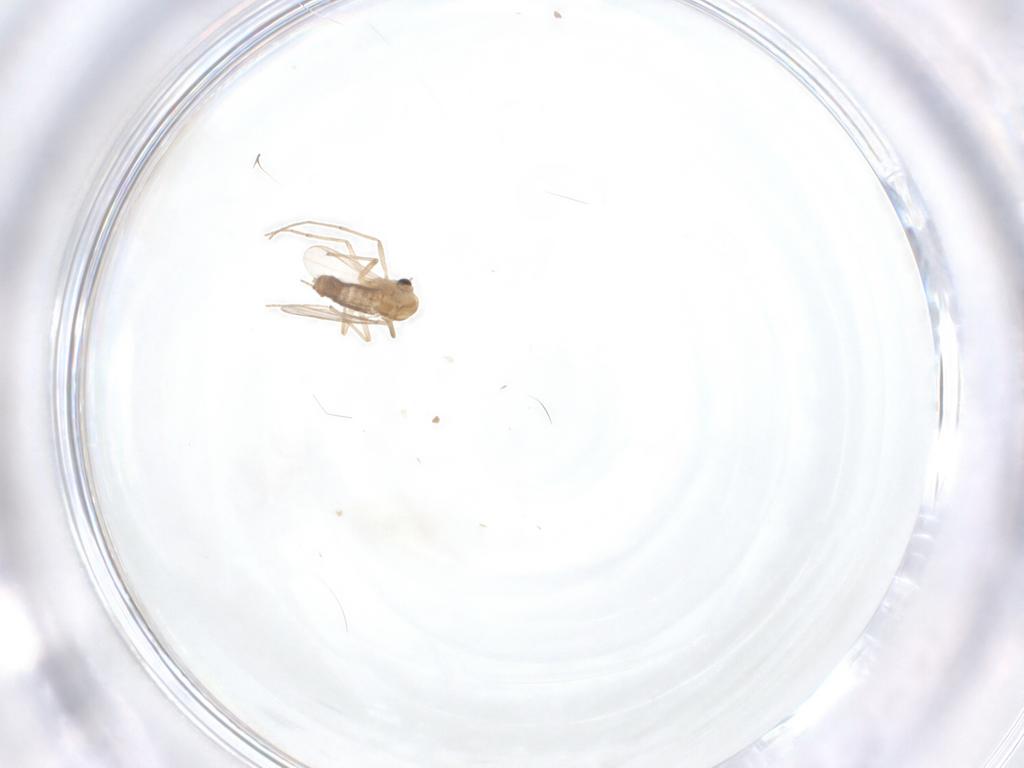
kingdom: Animalia
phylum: Arthropoda
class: Insecta
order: Diptera
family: Chironomidae
